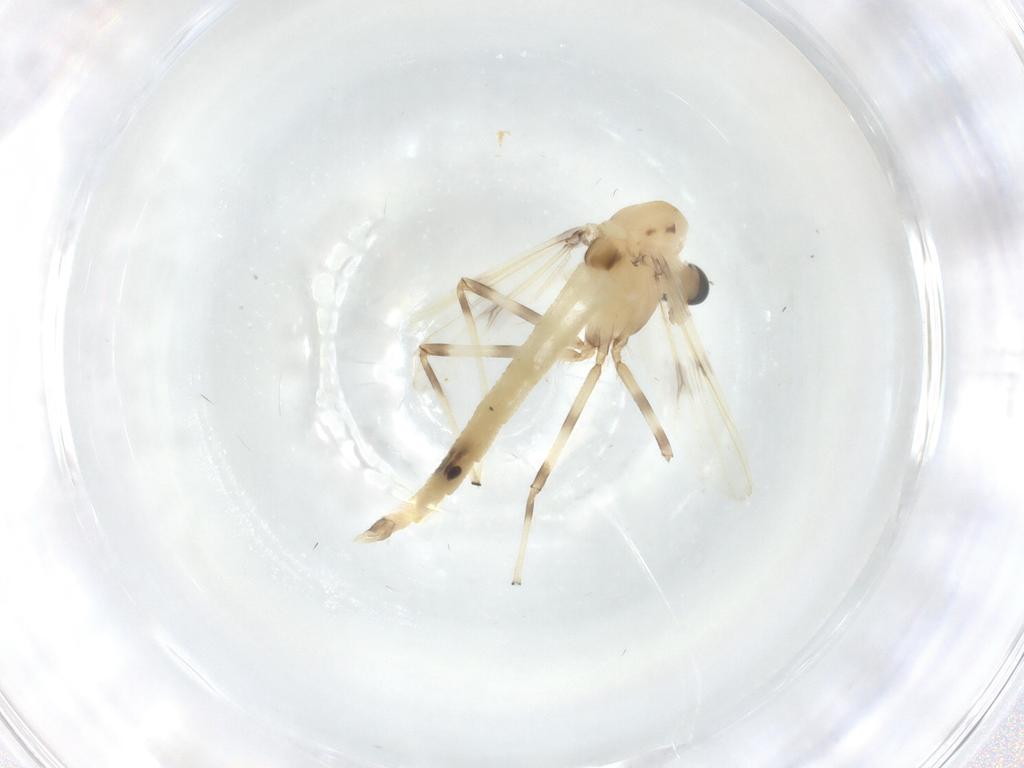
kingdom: Animalia
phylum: Arthropoda
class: Insecta
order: Diptera
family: Chironomidae
